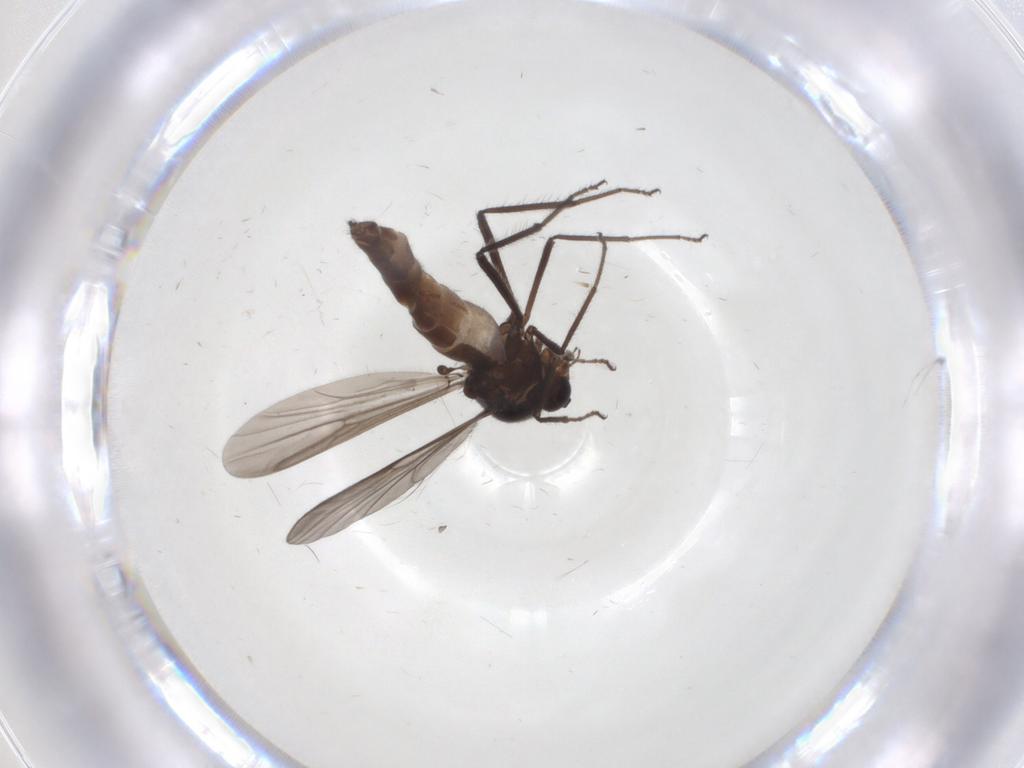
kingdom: Animalia
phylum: Arthropoda
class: Insecta
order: Diptera
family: Ceratopogonidae
